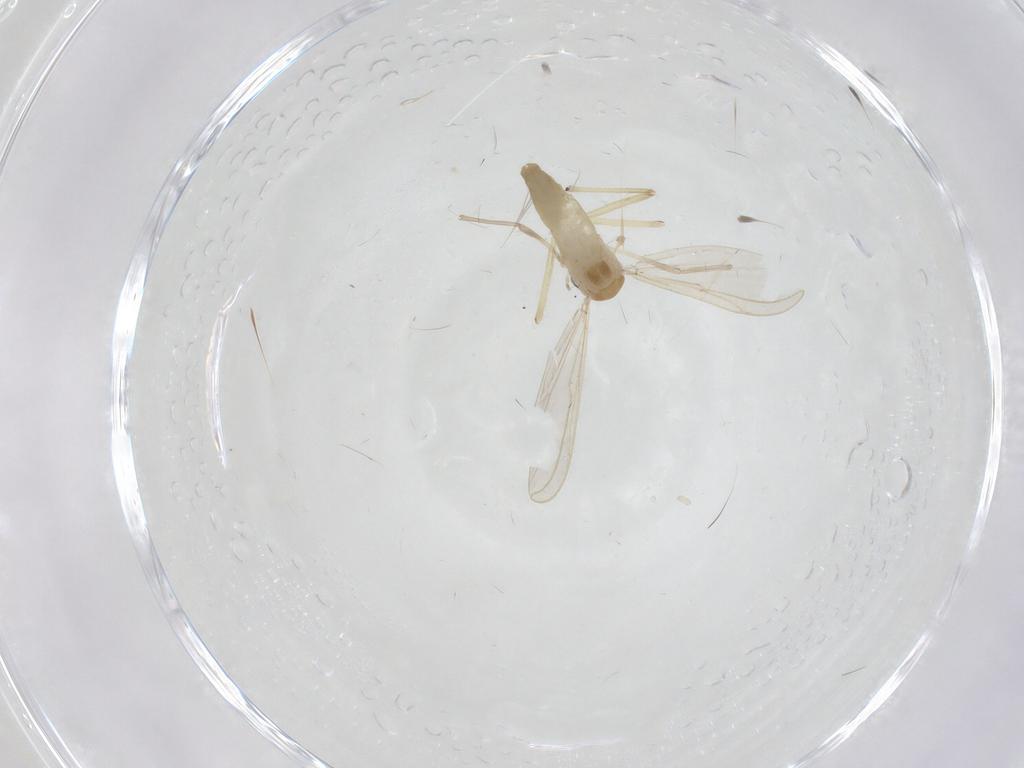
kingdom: Animalia
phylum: Arthropoda
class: Insecta
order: Diptera
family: Chironomidae
